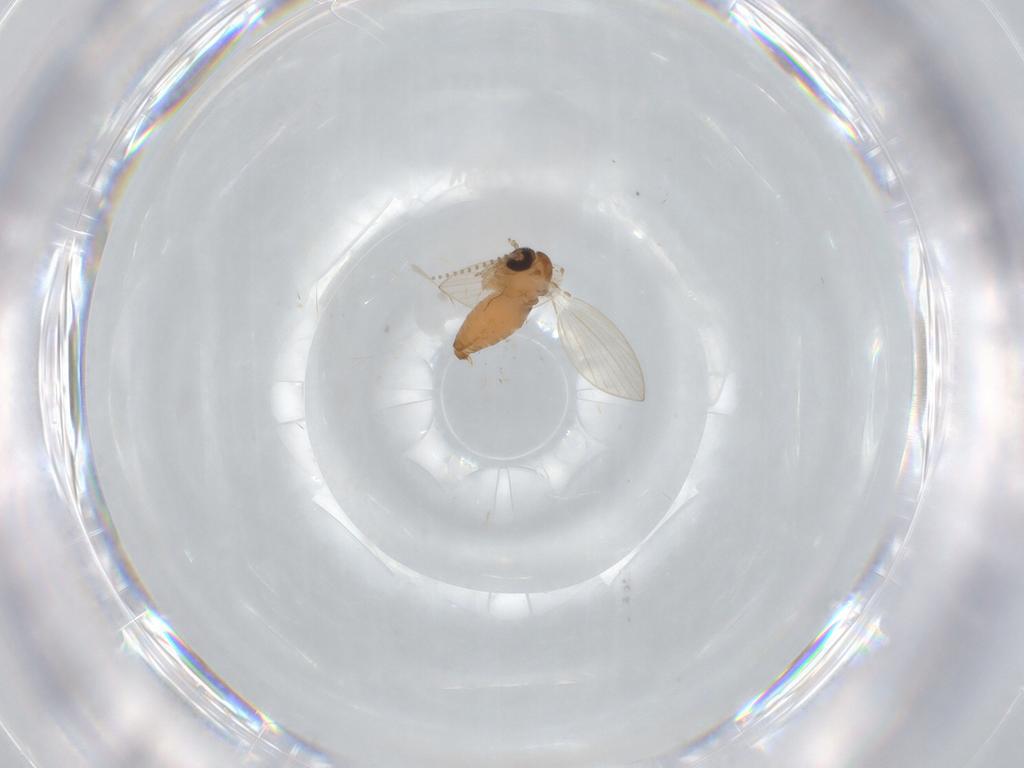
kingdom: Animalia
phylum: Arthropoda
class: Insecta
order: Diptera
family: Psychodidae
